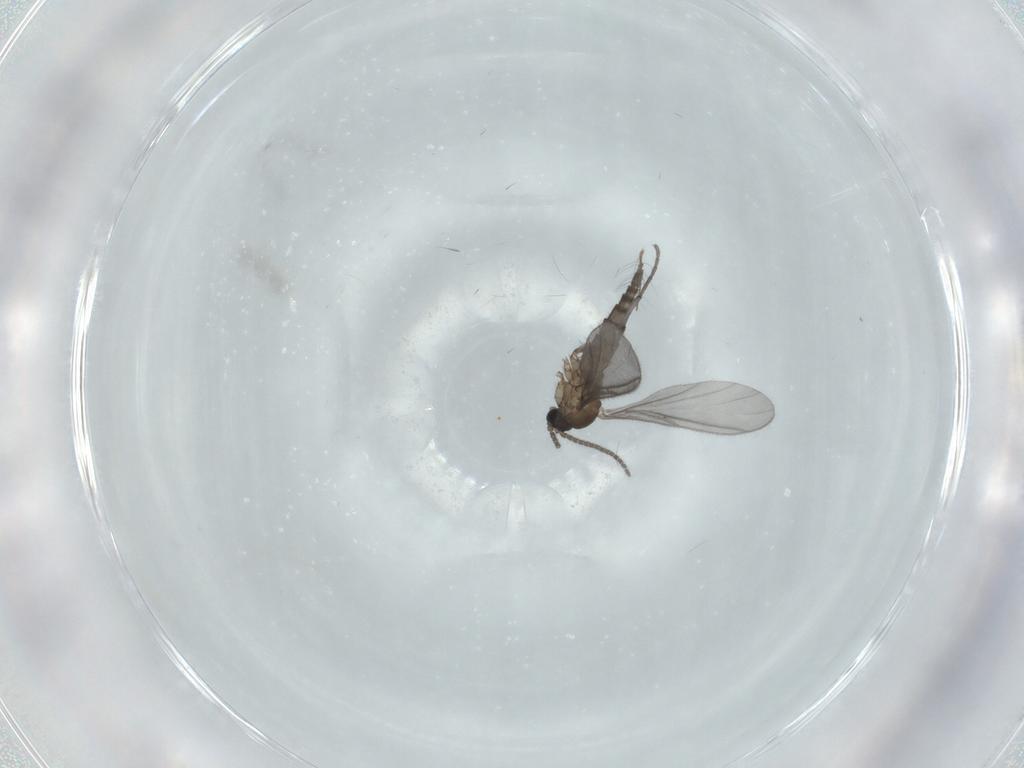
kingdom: Animalia
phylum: Arthropoda
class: Insecta
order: Diptera
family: Sciaridae
